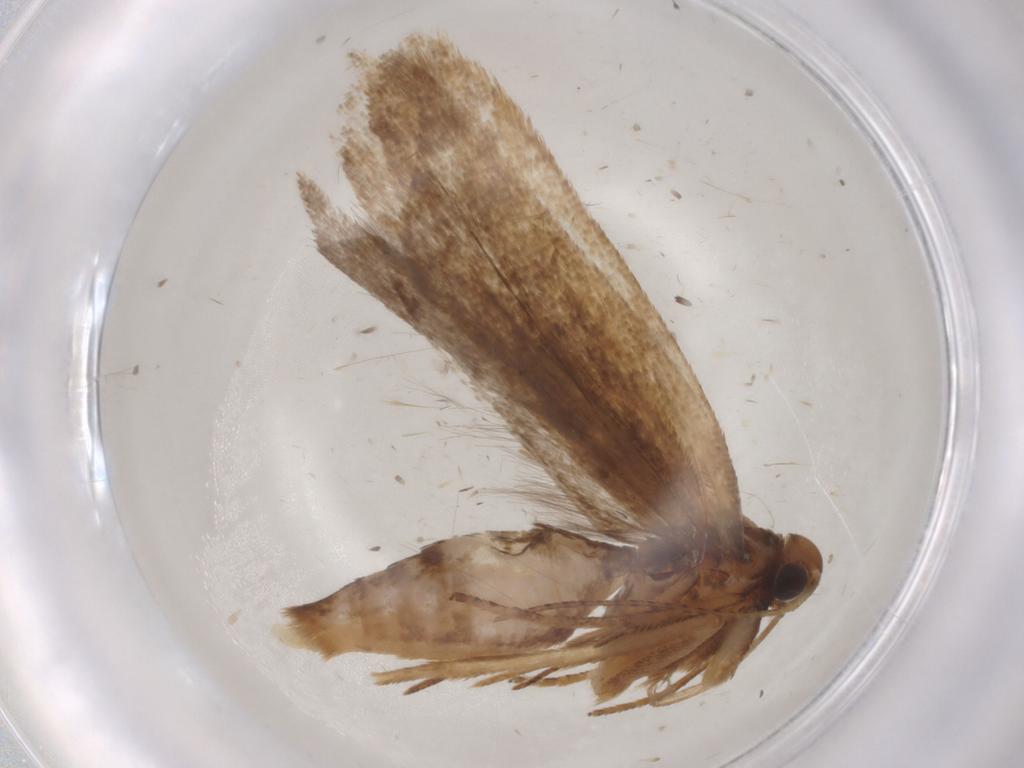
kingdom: Animalia
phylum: Arthropoda
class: Insecta
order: Lepidoptera
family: Gelechiidae
